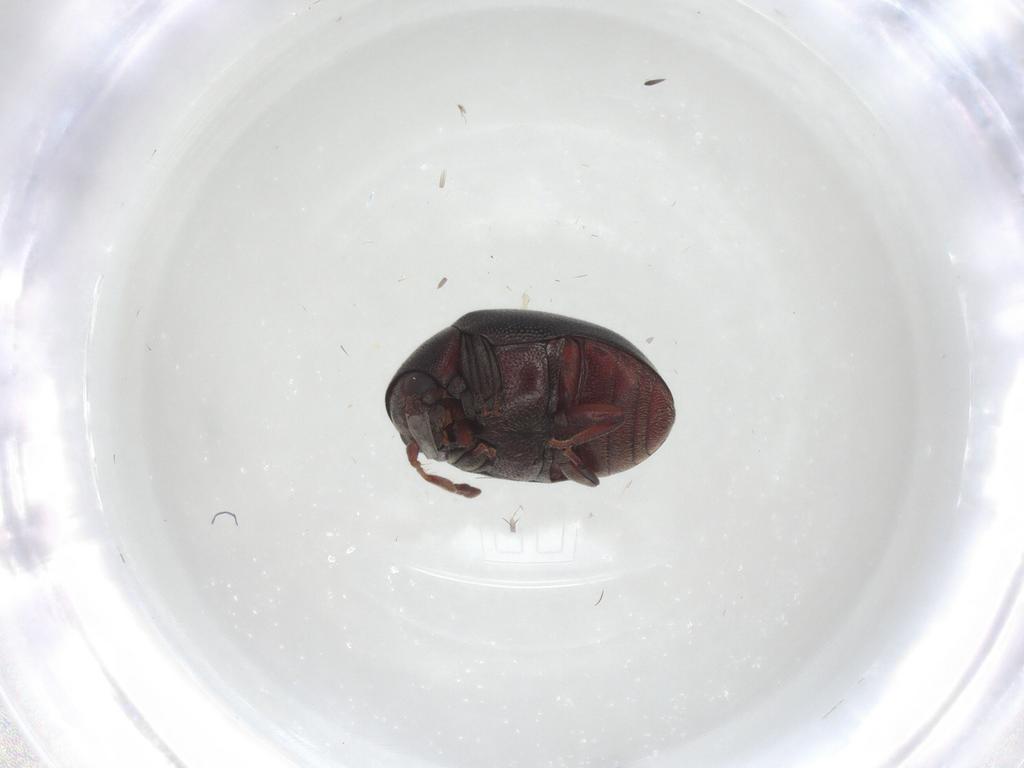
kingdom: Animalia
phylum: Arthropoda
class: Insecta
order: Coleoptera
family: Ptinidae
